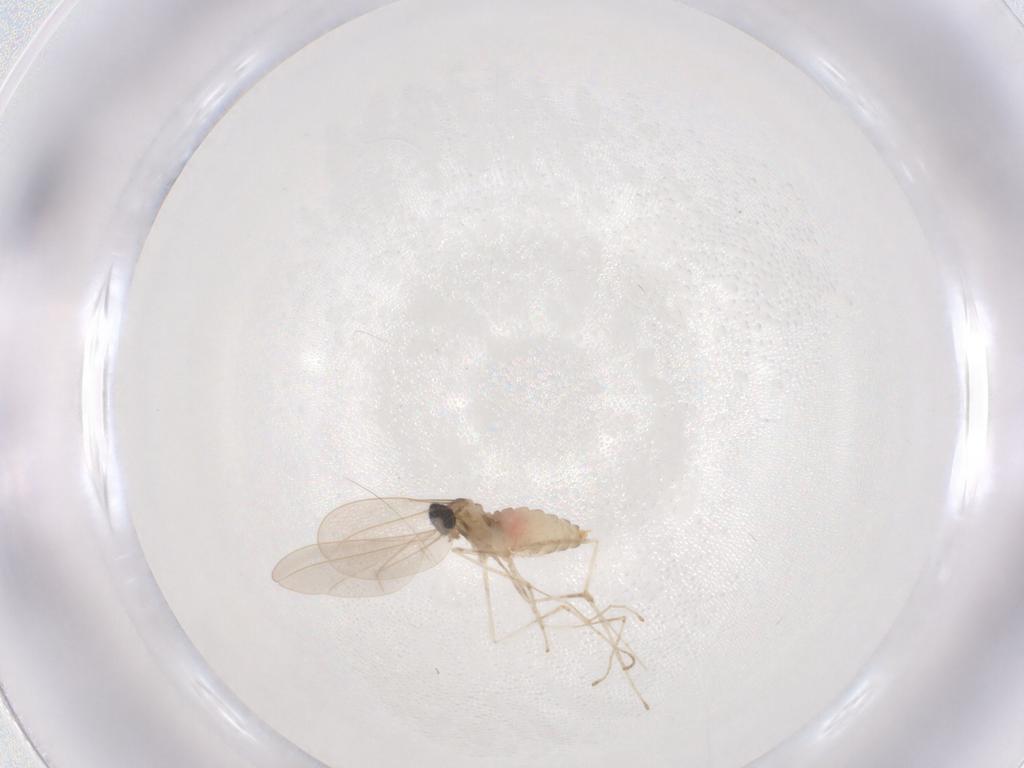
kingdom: Animalia
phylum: Arthropoda
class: Insecta
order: Diptera
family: Cecidomyiidae
